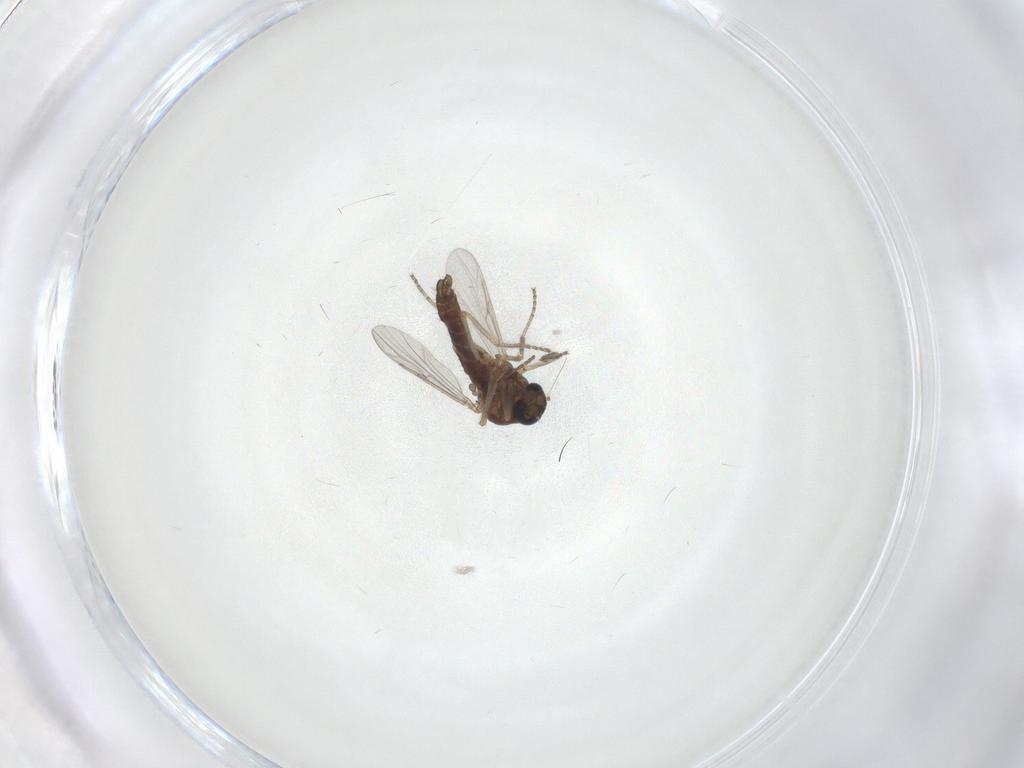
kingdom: Animalia
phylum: Arthropoda
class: Insecta
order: Diptera
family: Ceratopogonidae
